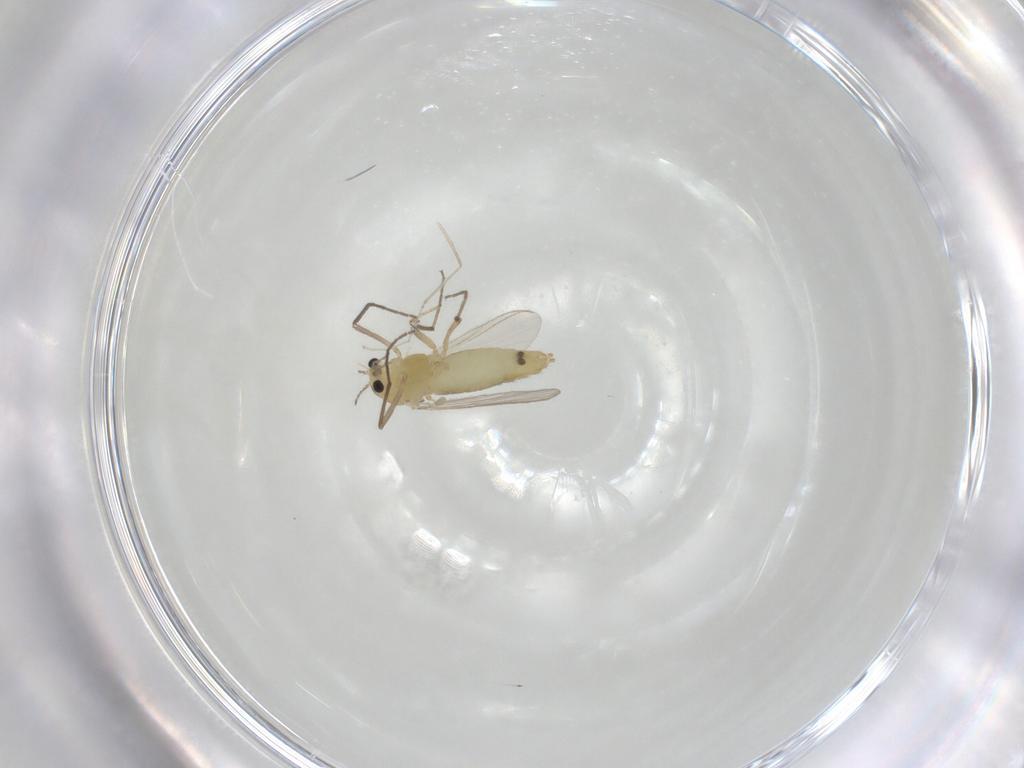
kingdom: Animalia
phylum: Arthropoda
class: Insecta
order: Diptera
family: Chironomidae
